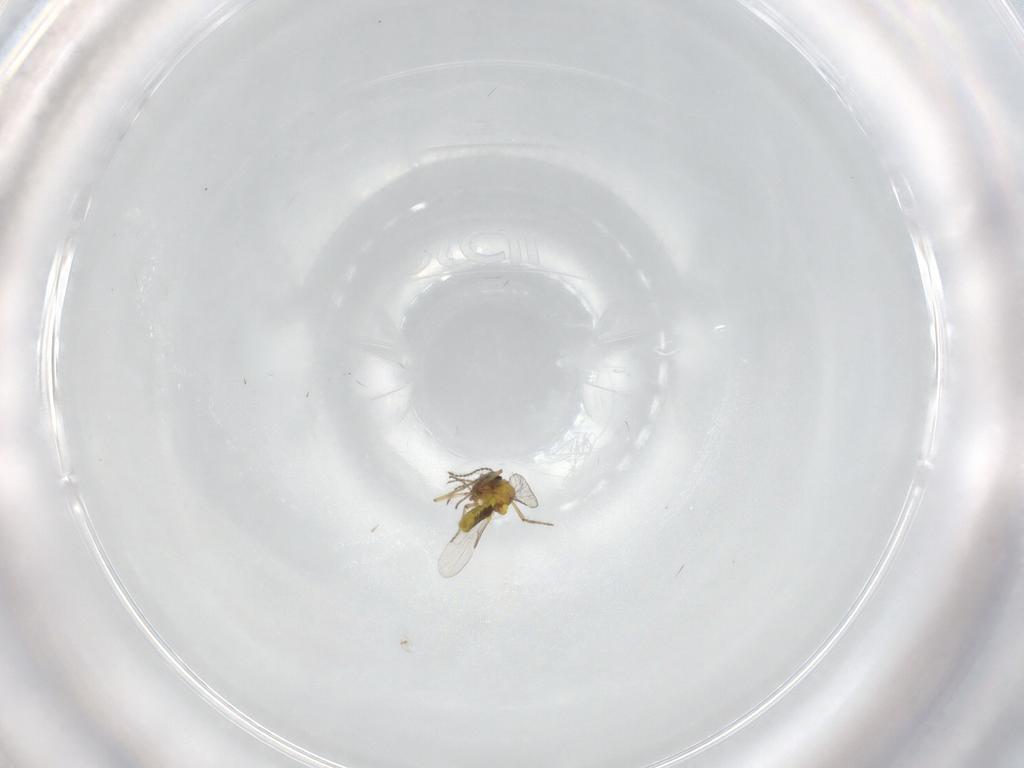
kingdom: Animalia
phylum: Arthropoda
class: Insecta
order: Diptera
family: Ceratopogonidae
